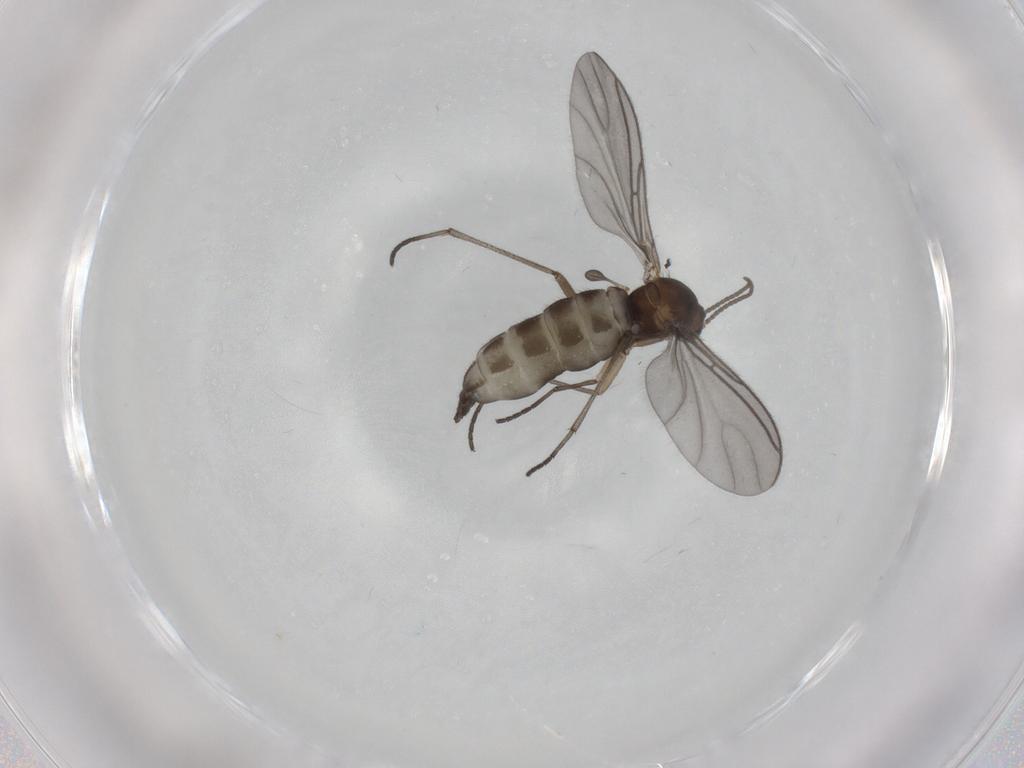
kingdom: Animalia
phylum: Arthropoda
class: Insecta
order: Diptera
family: Sciaridae
